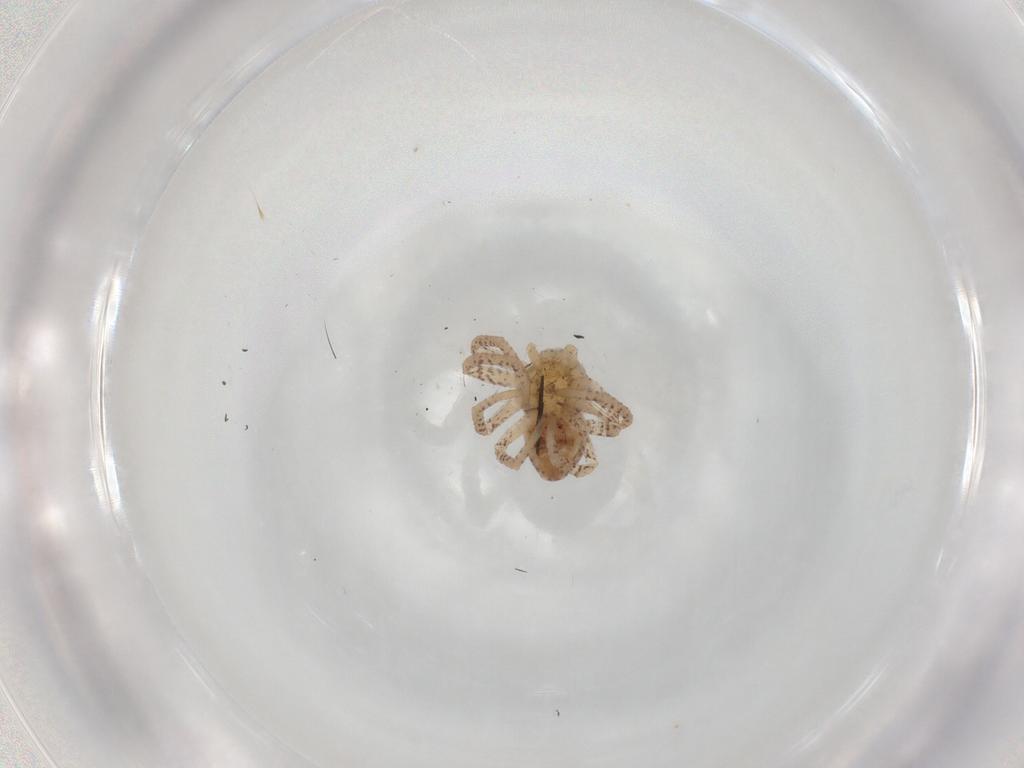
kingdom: Animalia
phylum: Arthropoda
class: Arachnida
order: Araneae
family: Philodromidae
